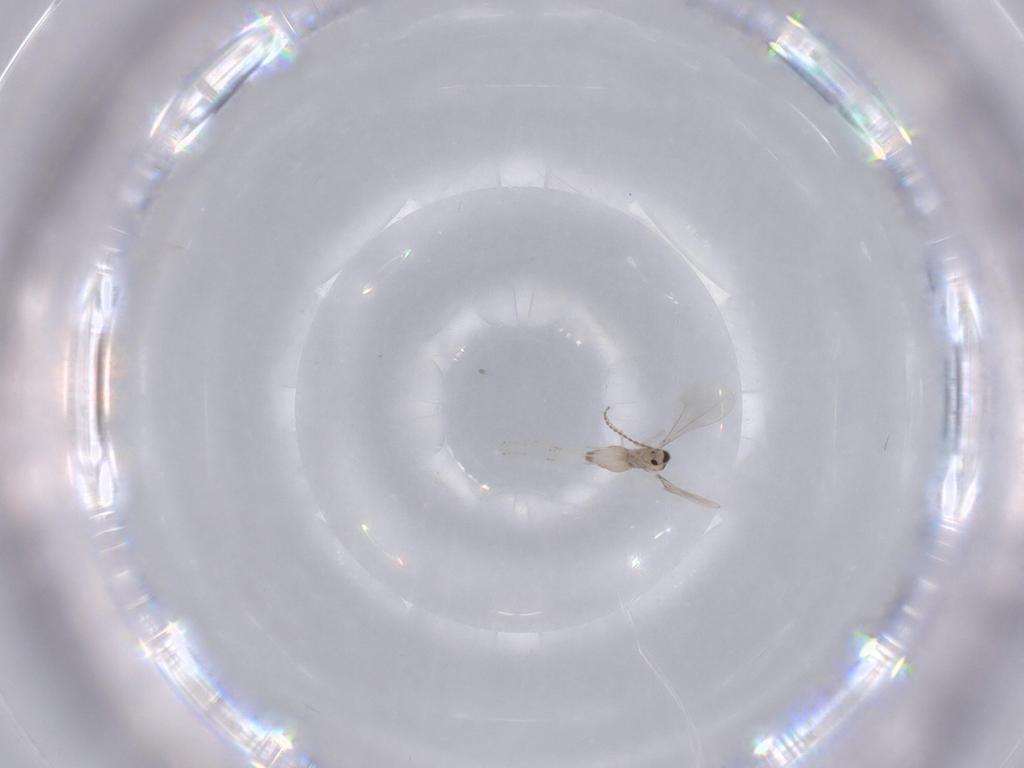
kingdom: Animalia
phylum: Arthropoda
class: Insecta
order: Diptera
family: Cecidomyiidae
